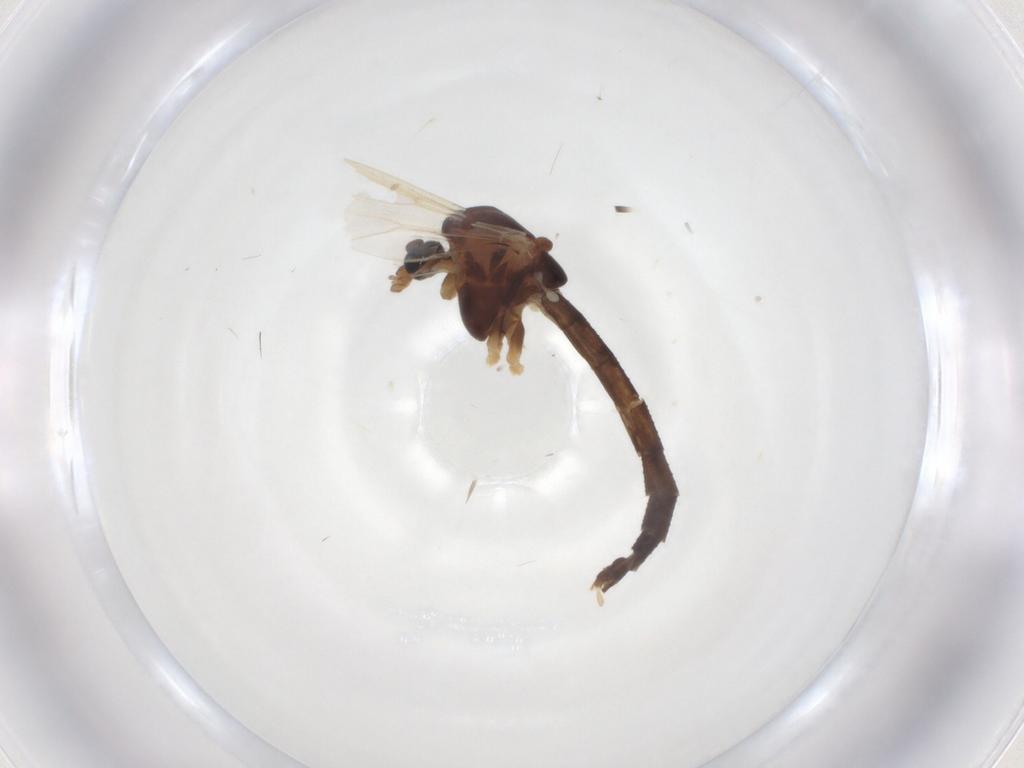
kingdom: Animalia
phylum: Arthropoda
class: Insecta
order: Diptera
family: Chironomidae
